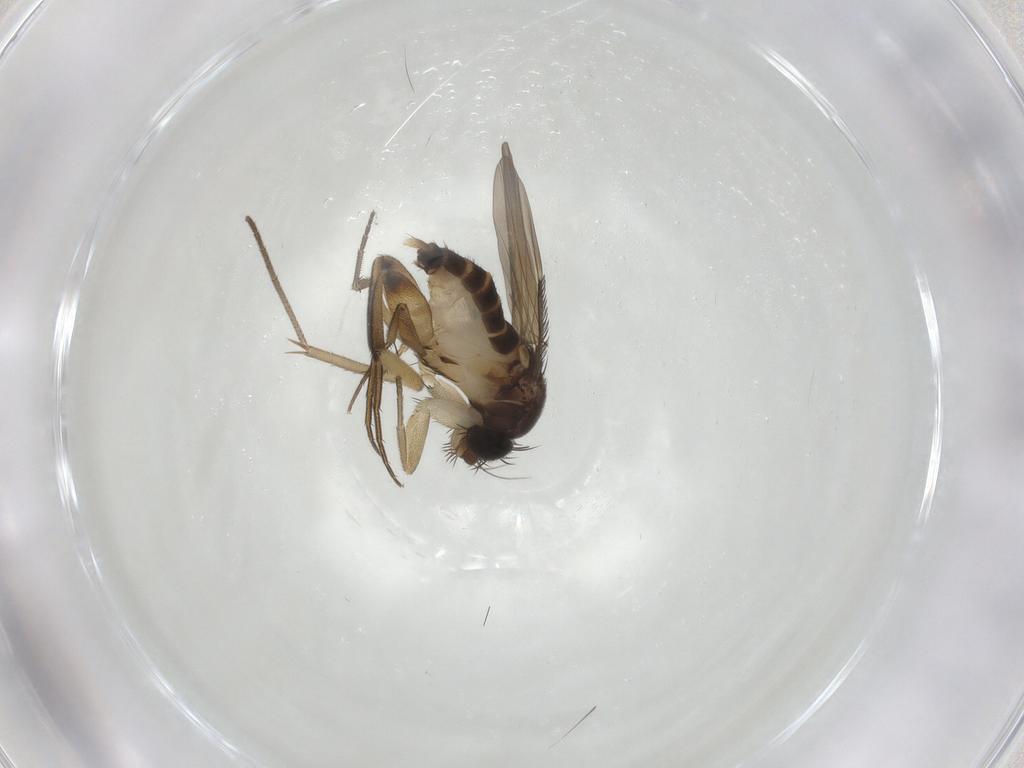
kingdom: Animalia
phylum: Arthropoda
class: Insecta
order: Diptera
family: Phoridae
